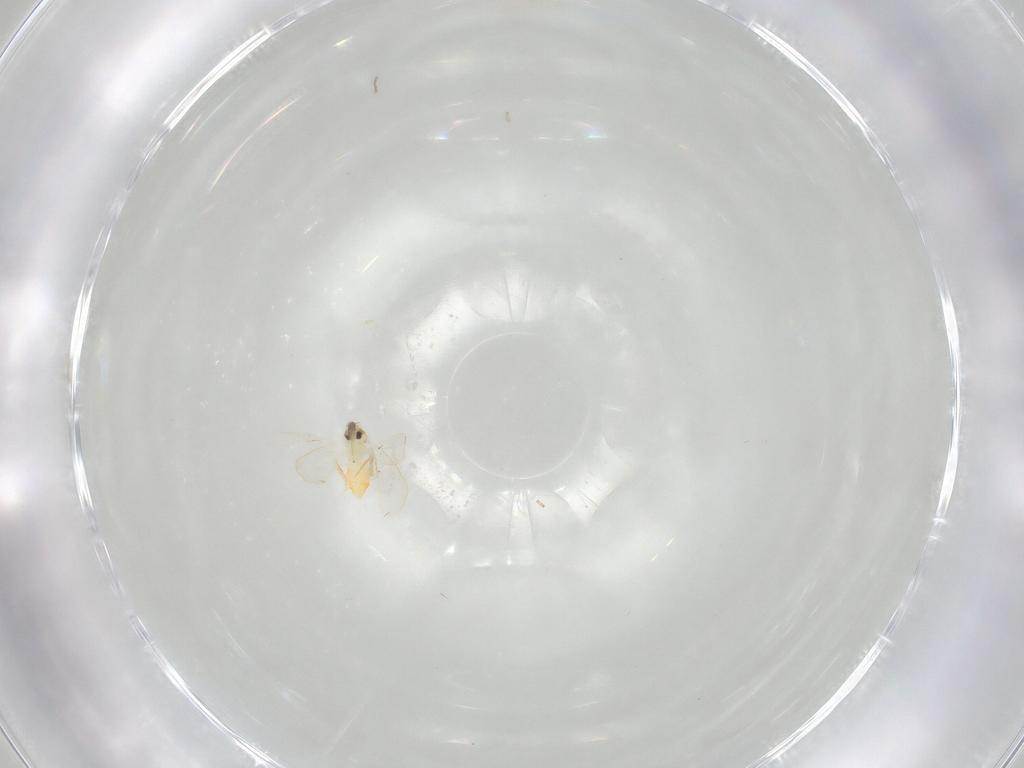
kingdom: Animalia
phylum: Arthropoda
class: Insecta
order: Hemiptera
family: Aleyrodidae
